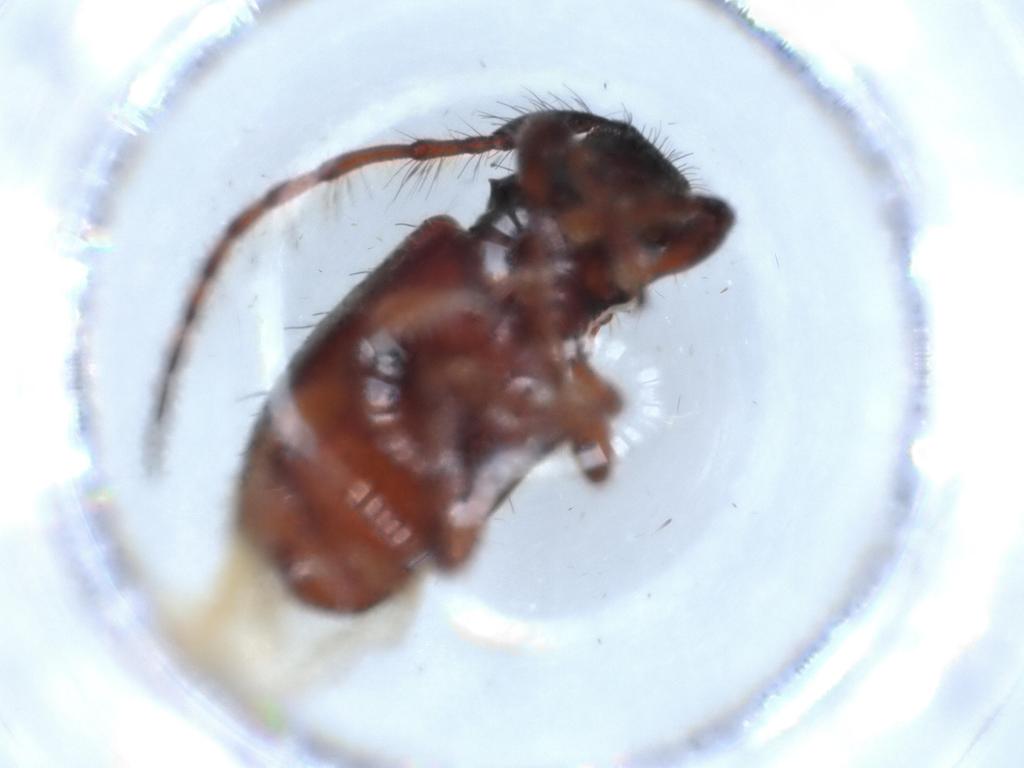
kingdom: Animalia
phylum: Arthropoda
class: Insecta
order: Coleoptera
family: Cerambycidae
